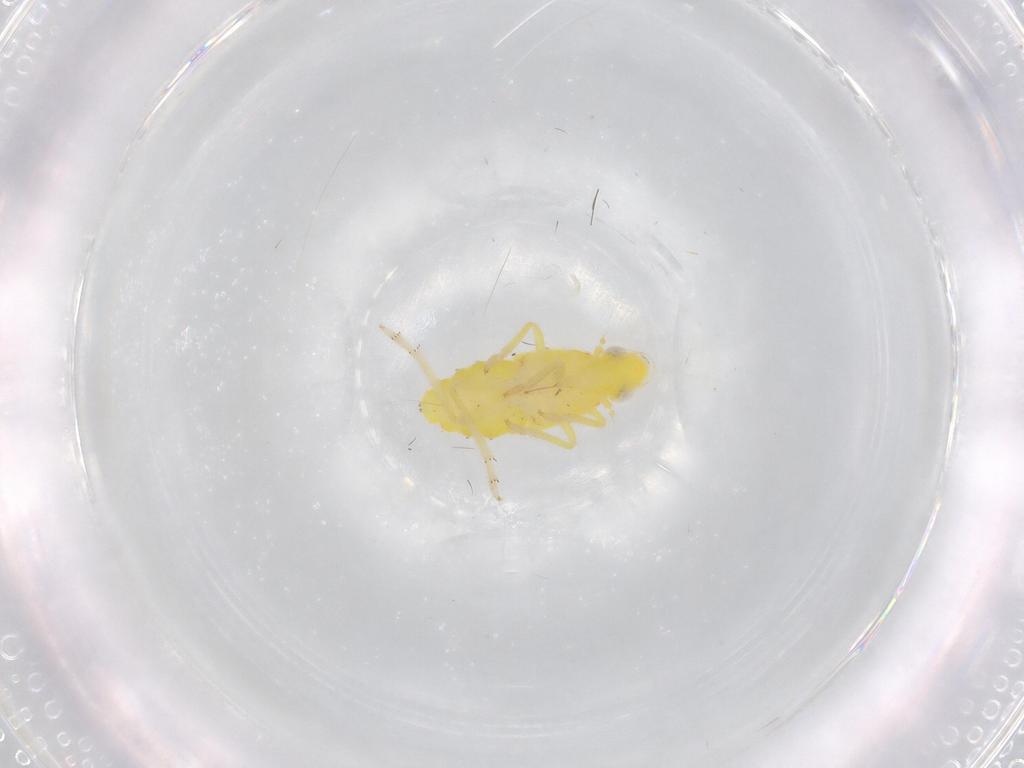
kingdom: Animalia
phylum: Arthropoda
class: Insecta
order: Hemiptera
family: Tropiduchidae
